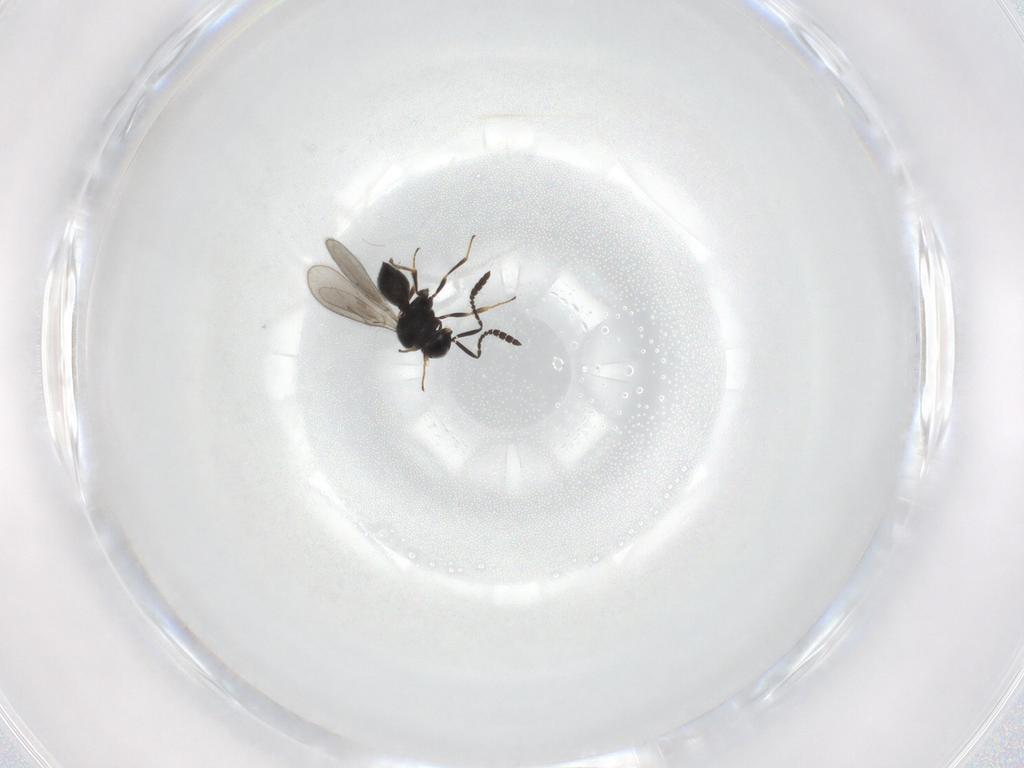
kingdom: Animalia
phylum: Arthropoda
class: Insecta
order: Hymenoptera
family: Scelionidae
